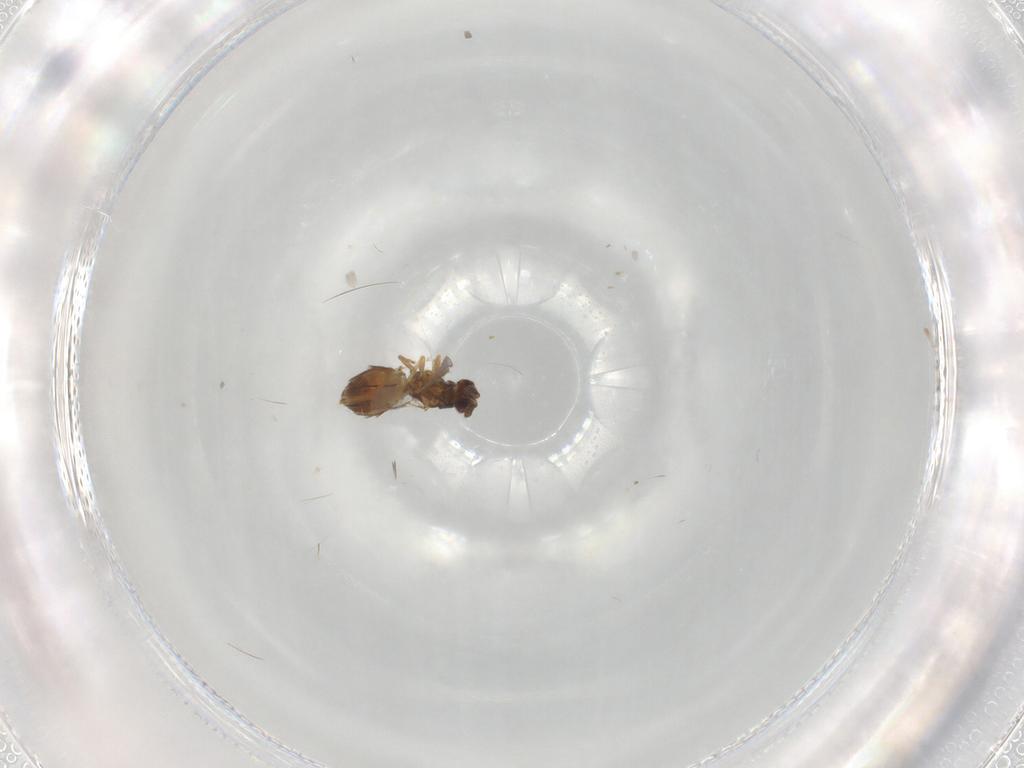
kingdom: Animalia
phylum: Arthropoda
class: Insecta
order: Hymenoptera
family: Eulophidae
